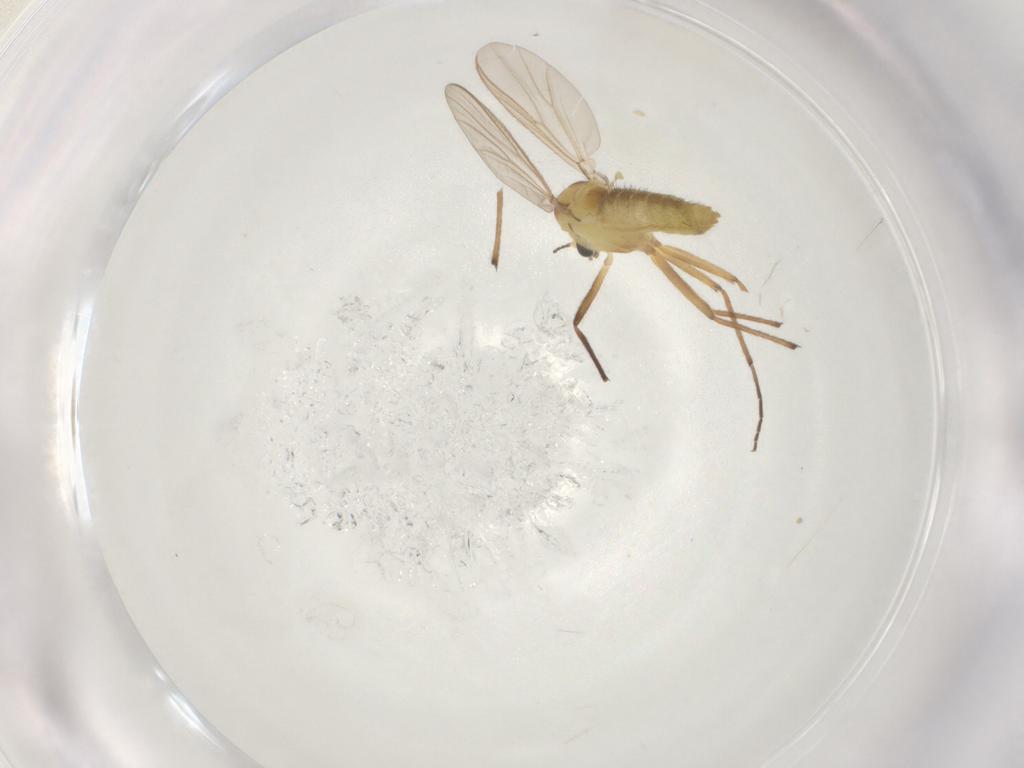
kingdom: Animalia
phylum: Arthropoda
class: Insecta
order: Diptera
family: Chironomidae
